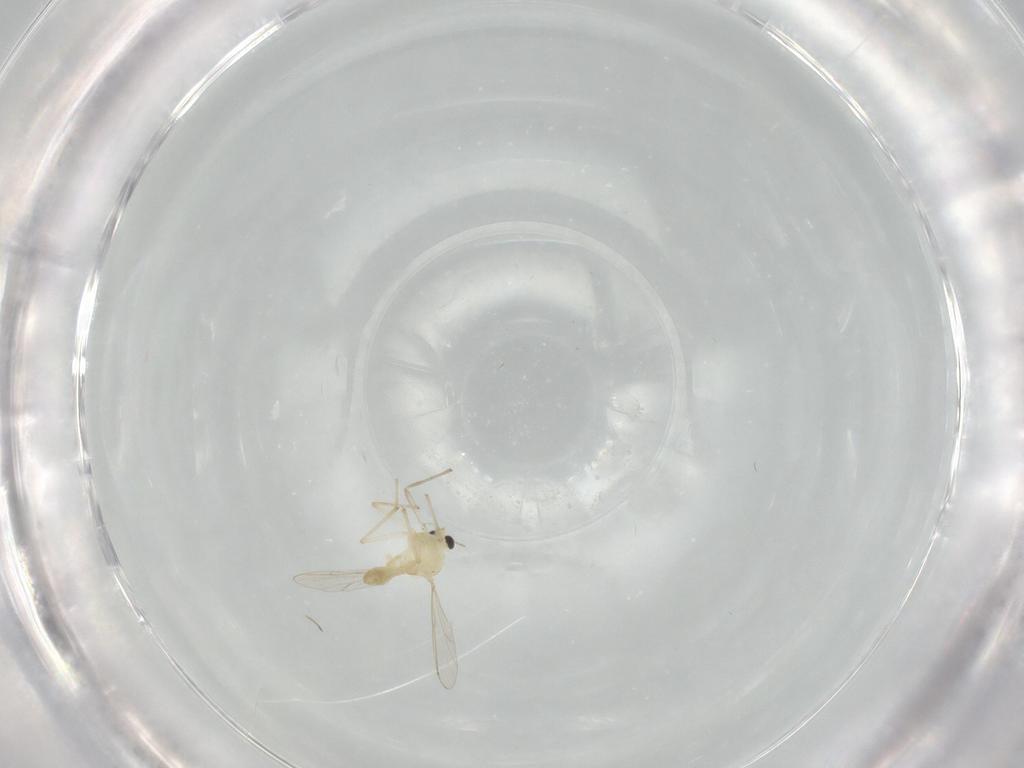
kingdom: Animalia
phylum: Arthropoda
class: Insecta
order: Diptera
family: Chironomidae
